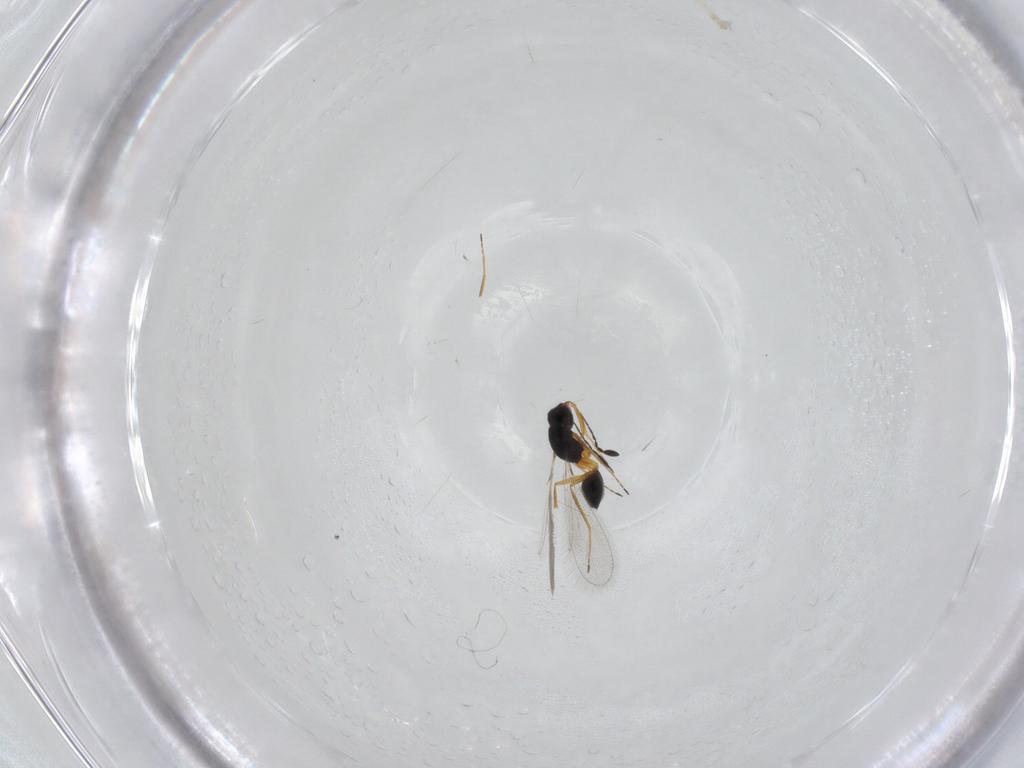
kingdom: Animalia
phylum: Arthropoda
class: Insecta
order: Hymenoptera
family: Mymaridae
